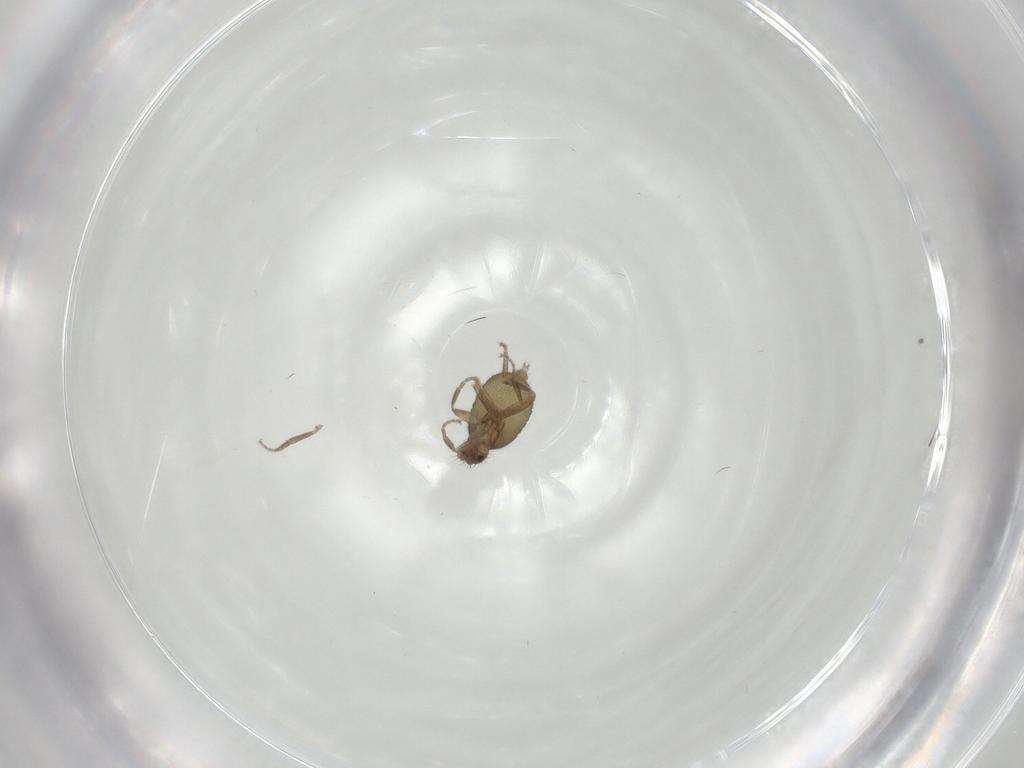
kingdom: Animalia
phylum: Arthropoda
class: Insecta
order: Diptera
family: Phoridae
